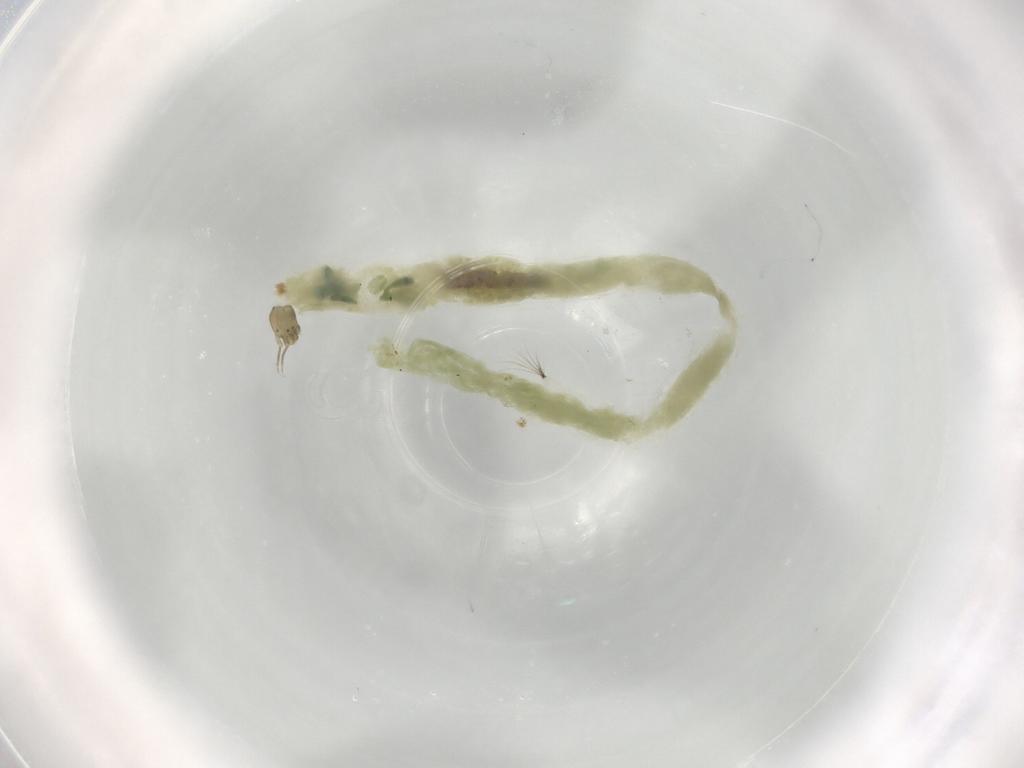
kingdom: Animalia
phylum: Arthropoda
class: Insecta
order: Diptera
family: Chironomidae
